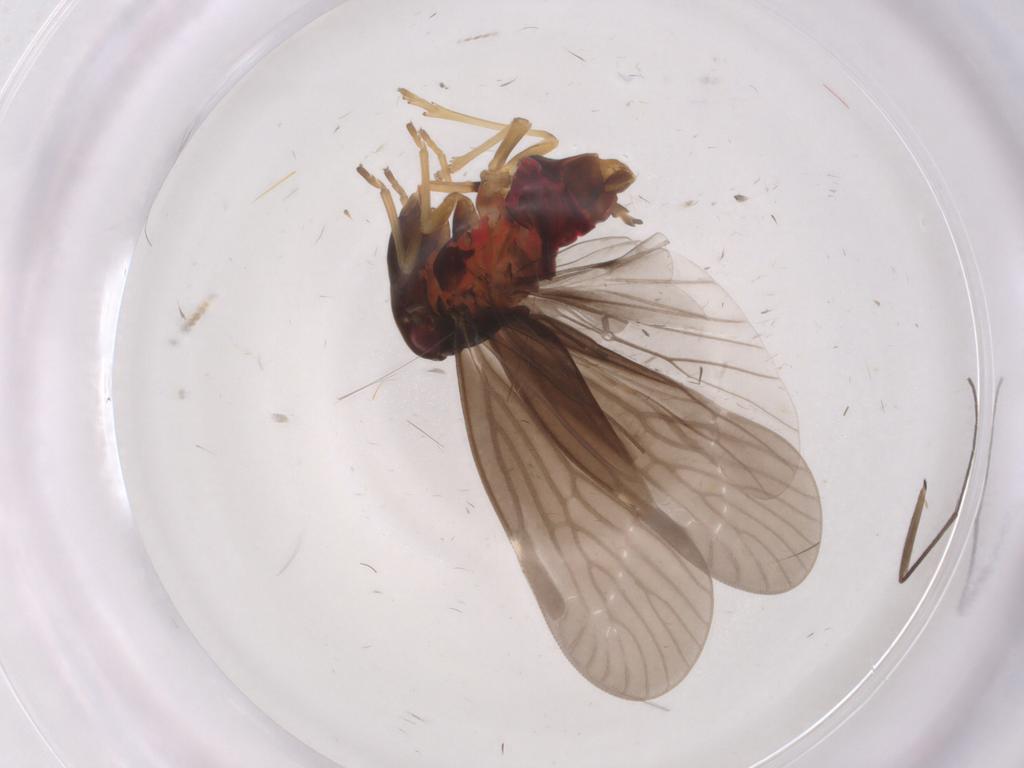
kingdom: Animalia
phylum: Arthropoda
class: Insecta
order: Hemiptera
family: Derbidae
